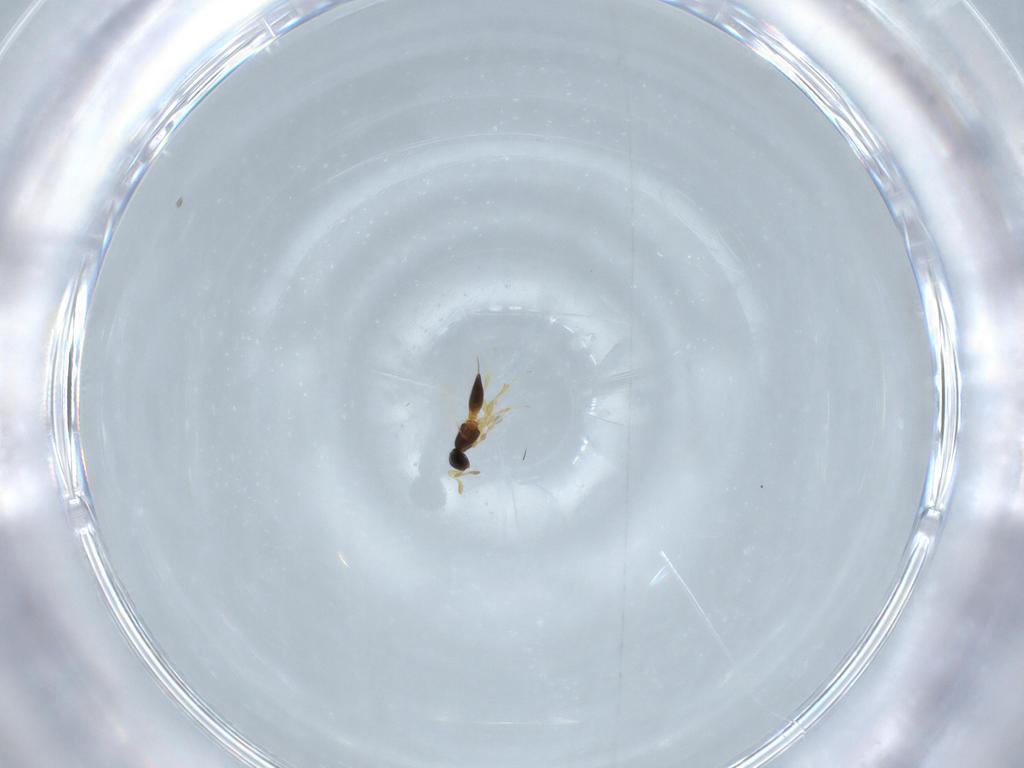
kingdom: Animalia
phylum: Arthropoda
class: Insecta
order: Hymenoptera
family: Platygastridae
